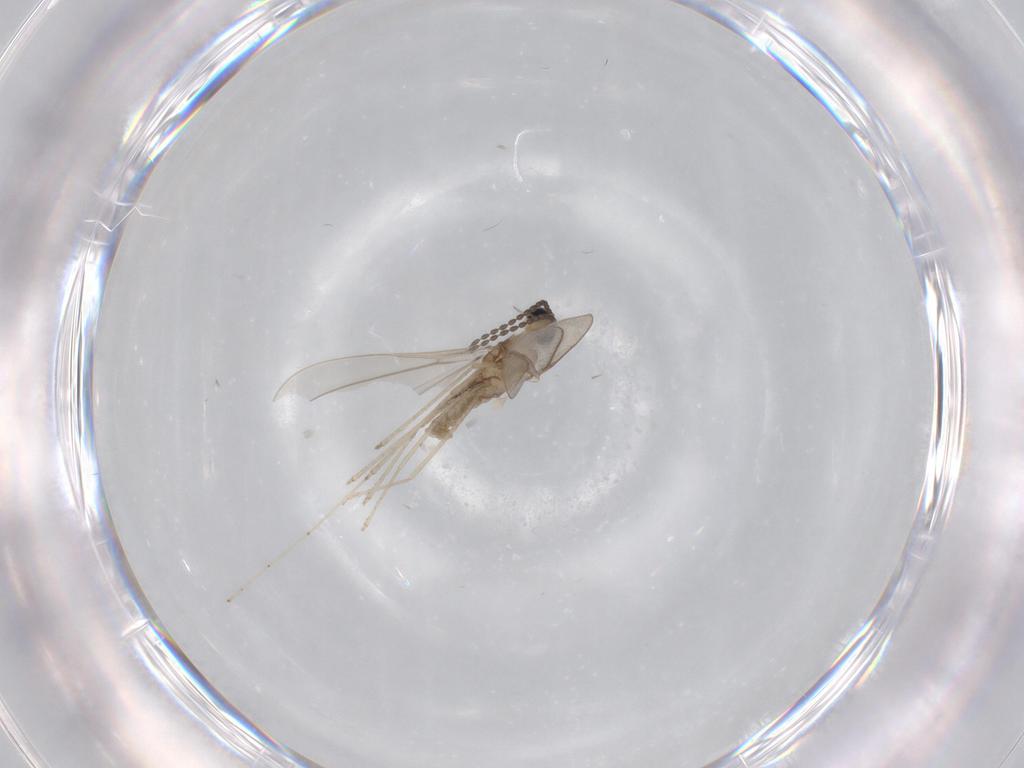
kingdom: Animalia
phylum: Arthropoda
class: Insecta
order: Diptera
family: Cecidomyiidae
